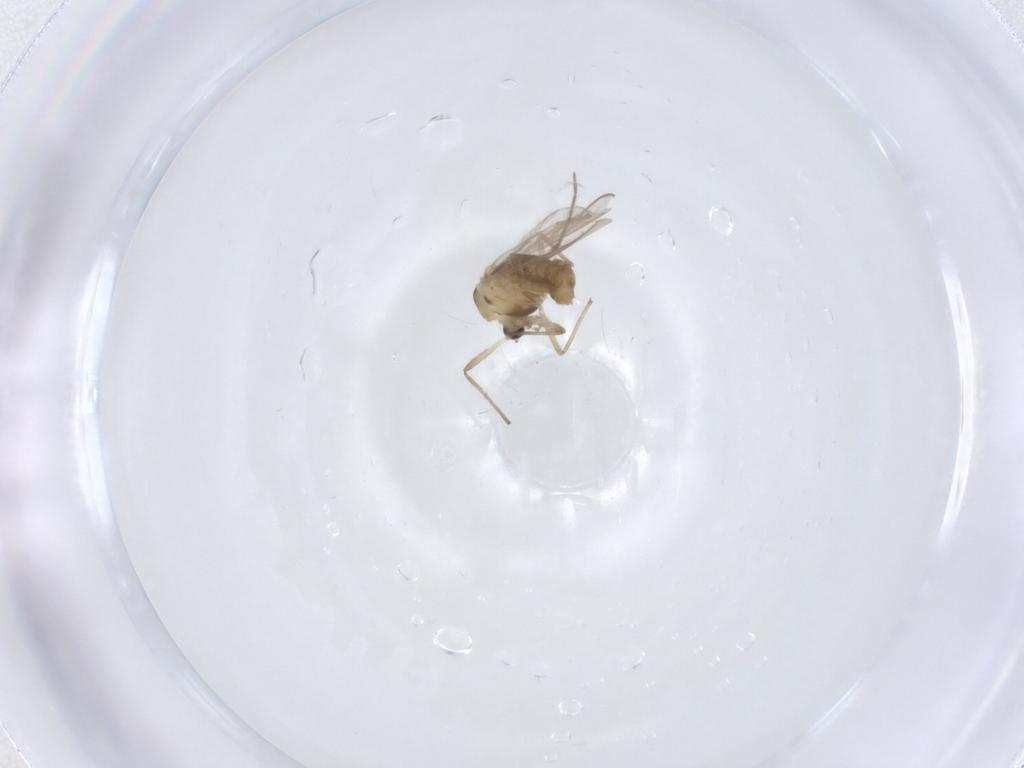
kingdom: Animalia
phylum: Arthropoda
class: Insecta
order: Diptera
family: Chironomidae
